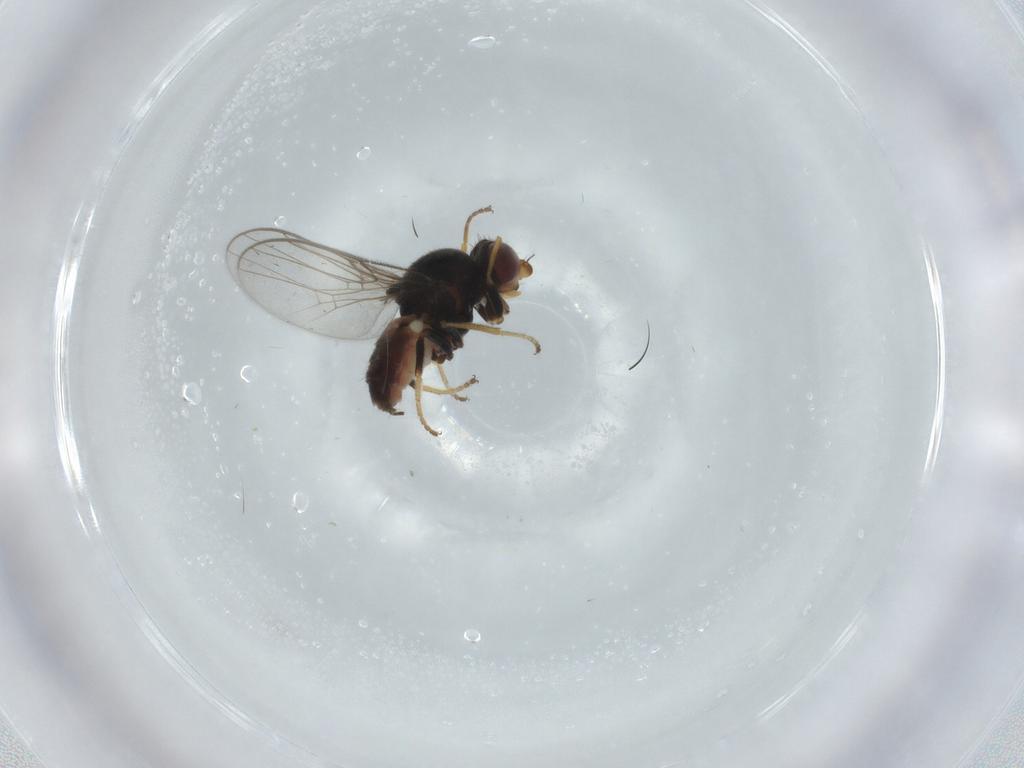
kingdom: Animalia
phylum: Arthropoda
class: Insecta
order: Diptera
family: Chloropidae
